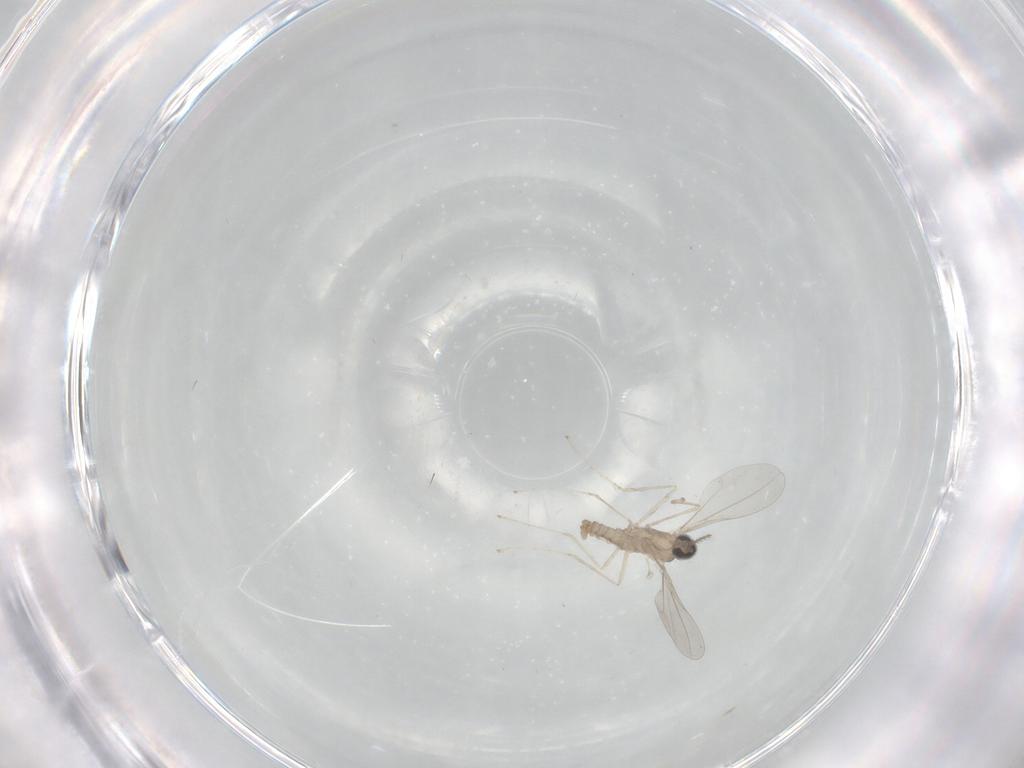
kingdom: Animalia
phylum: Arthropoda
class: Insecta
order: Diptera
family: Cecidomyiidae
